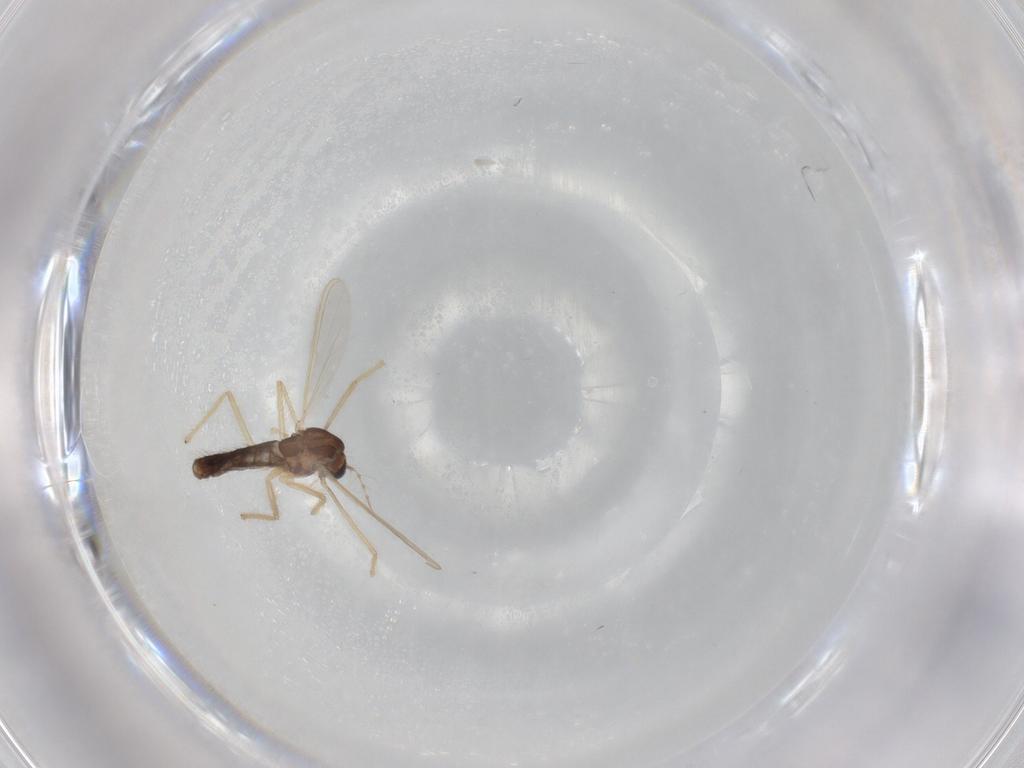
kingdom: Animalia
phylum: Arthropoda
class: Insecta
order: Diptera
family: Chironomidae
